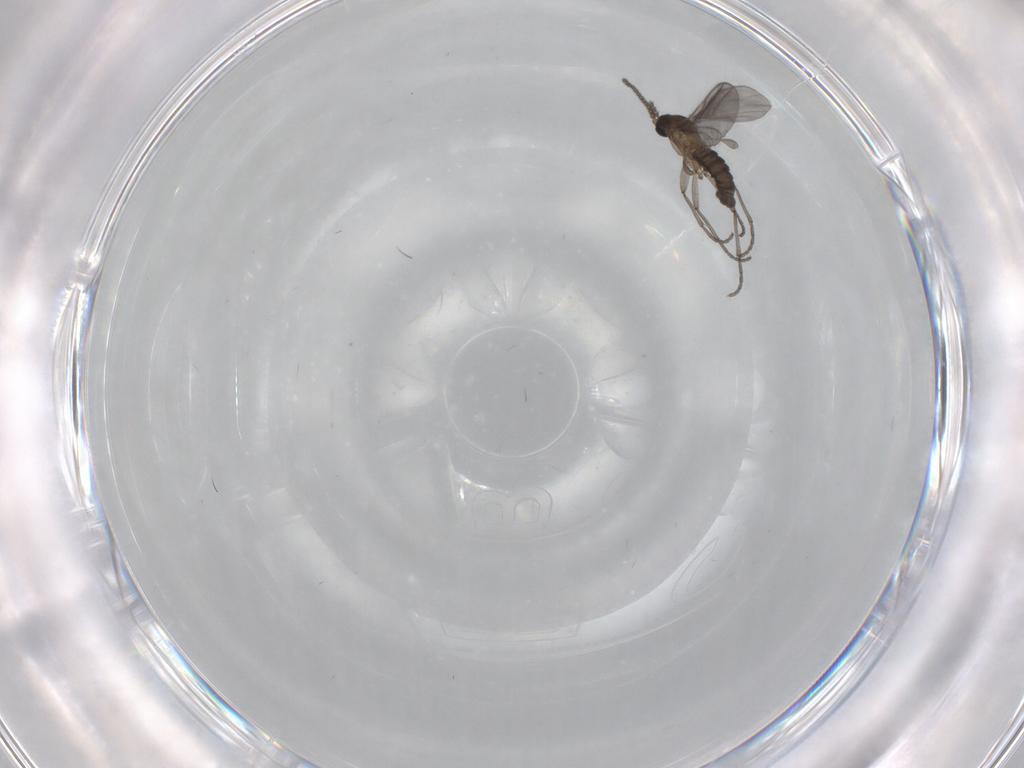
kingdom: Animalia
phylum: Arthropoda
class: Insecta
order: Diptera
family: Sciaridae
